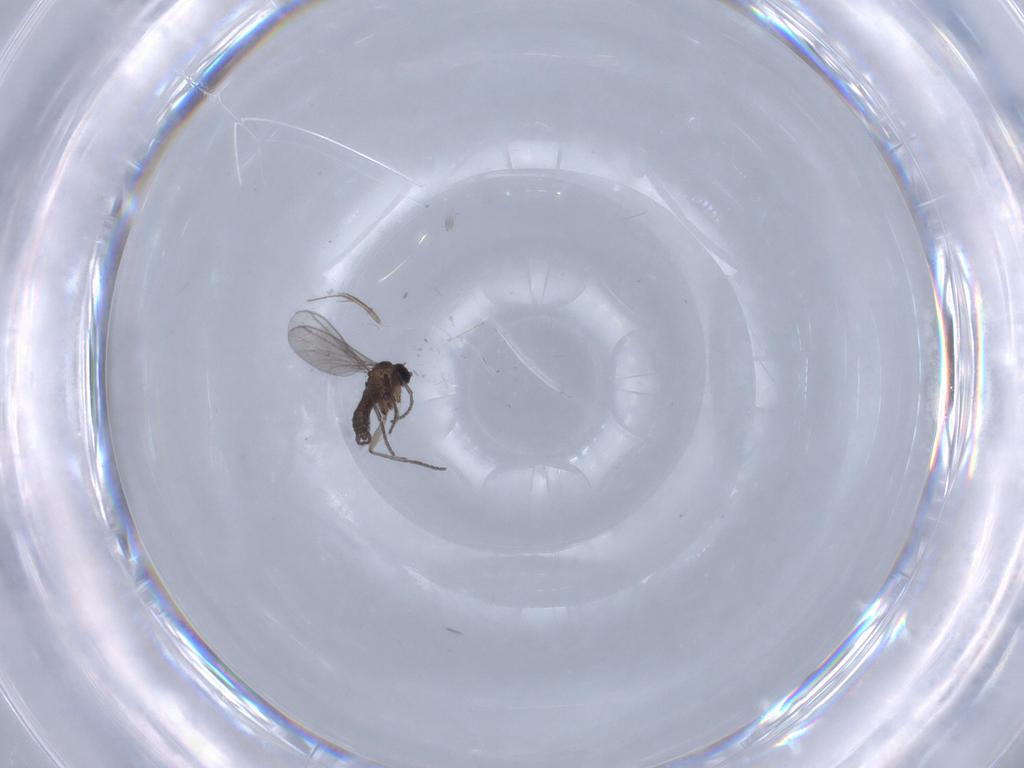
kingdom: Animalia
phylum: Arthropoda
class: Insecta
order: Diptera
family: Ceratopogonidae
